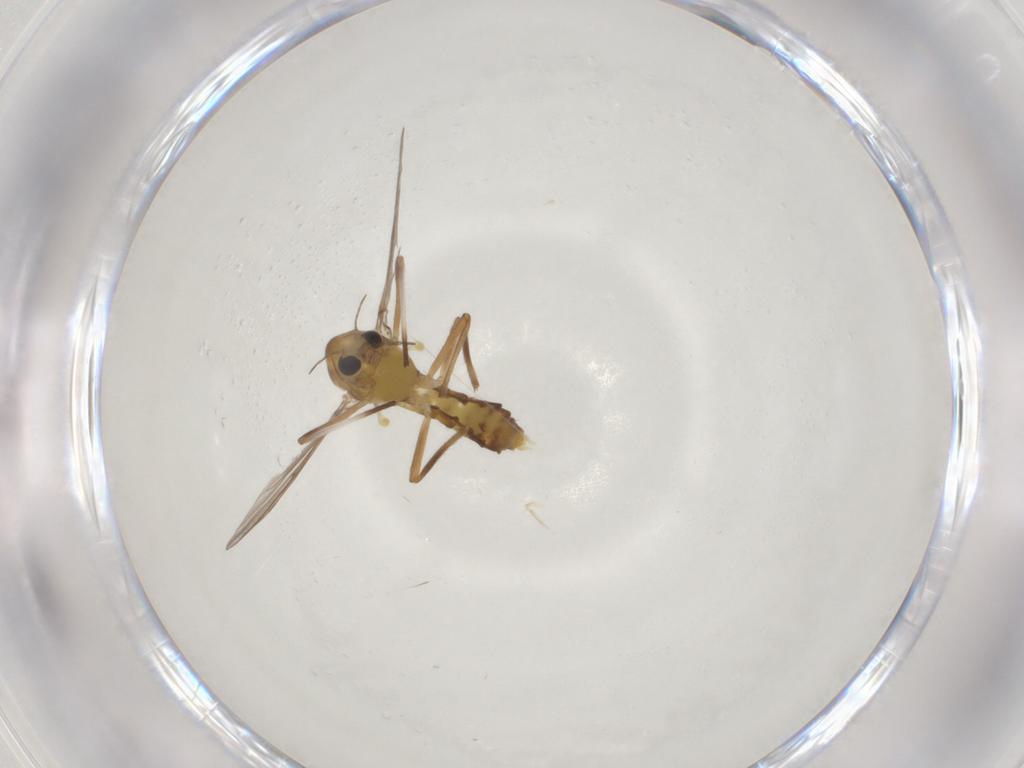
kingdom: Animalia
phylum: Arthropoda
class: Insecta
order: Diptera
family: Chironomidae
